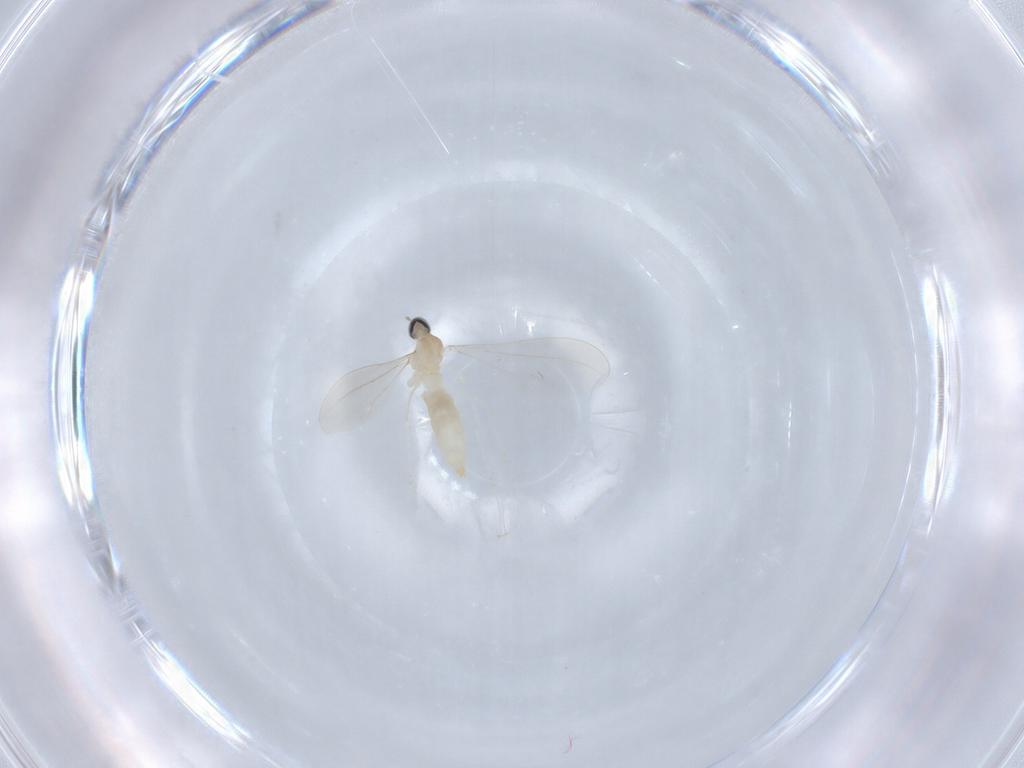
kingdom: Animalia
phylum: Arthropoda
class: Insecta
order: Diptera
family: Cecidomyiidae
